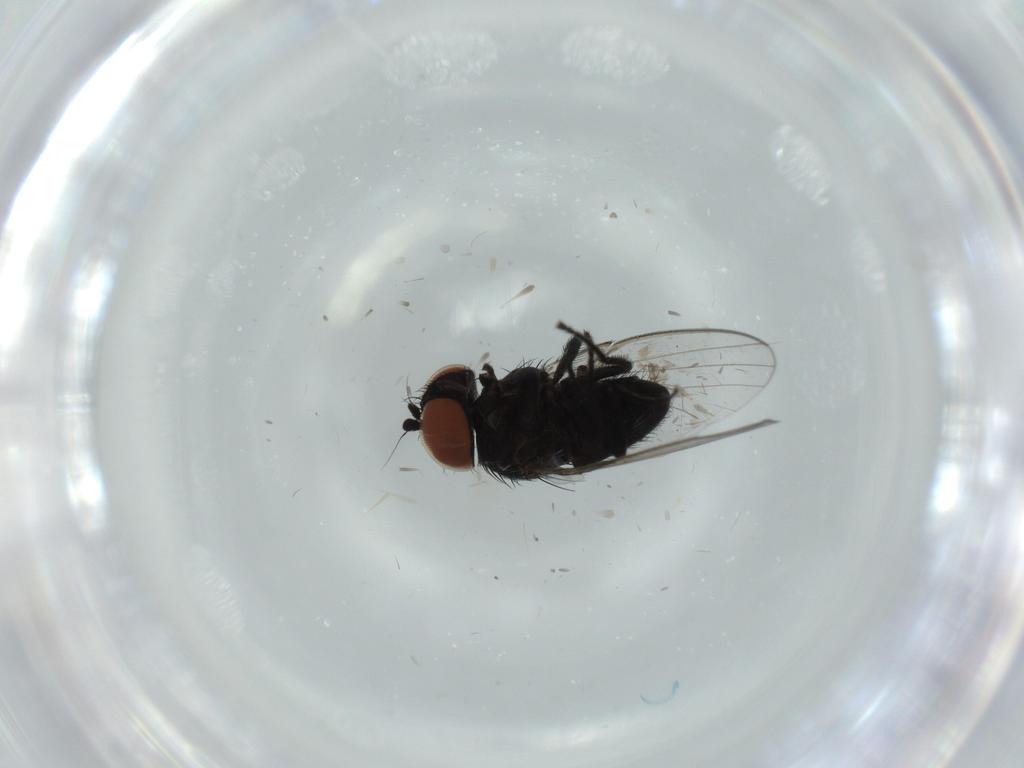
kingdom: Animalia
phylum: Arthropoda
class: Insecta
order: Diptera
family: Milichiidae
